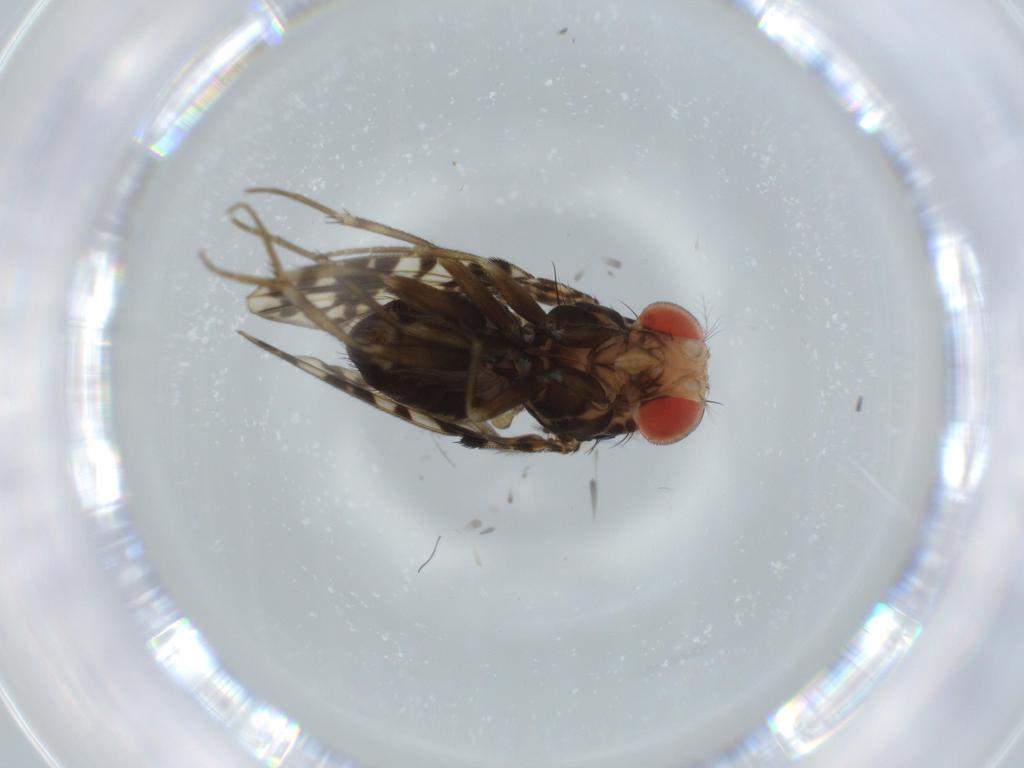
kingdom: Animalia
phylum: Arthropoda
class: Insecta
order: Diptera
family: Drosophilidae
